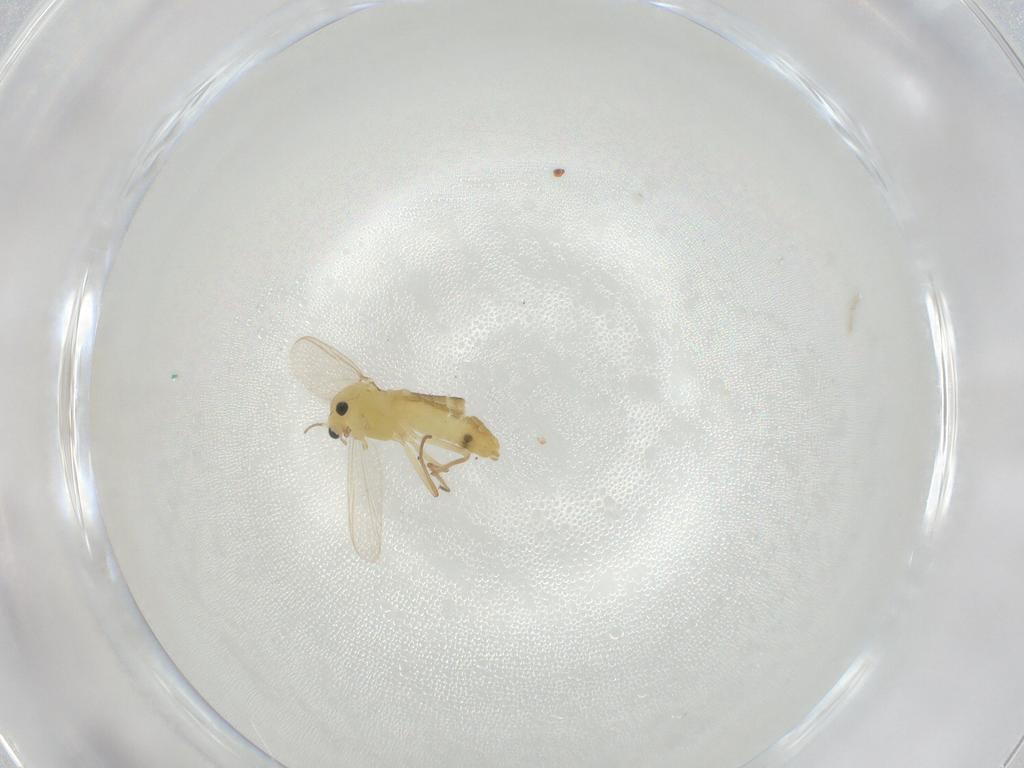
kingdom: Animalia
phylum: Arthropoda
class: Insecta
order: Diptera
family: Chironomidae
